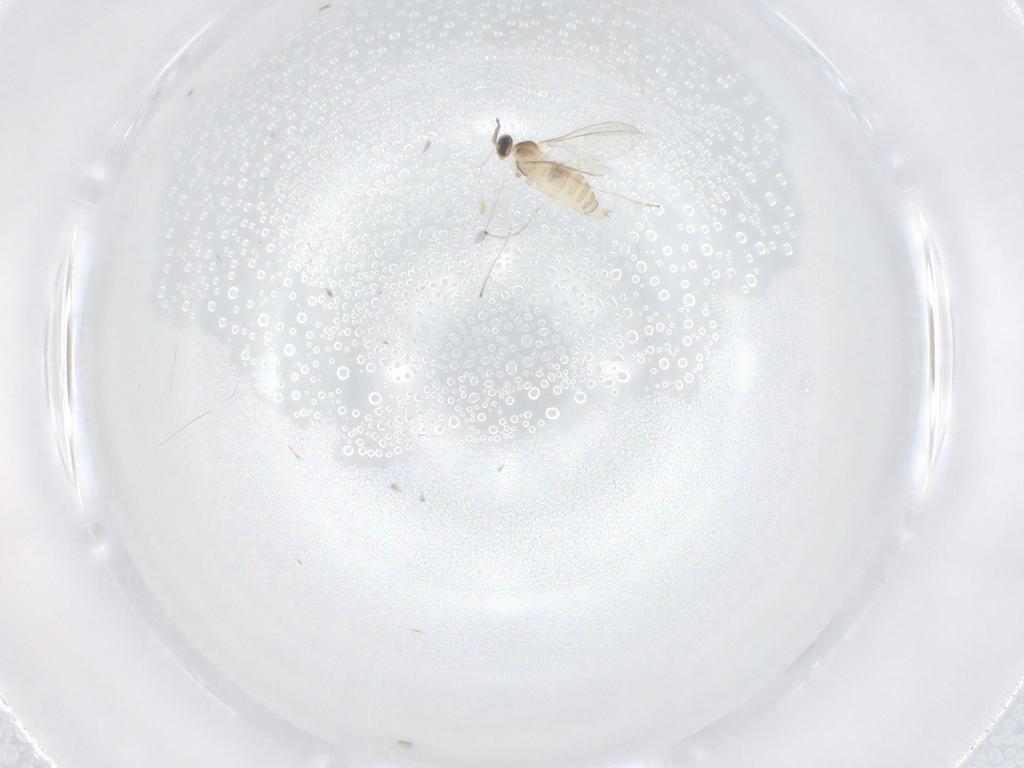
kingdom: Animalia
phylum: Arthropoda
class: Insecta
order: Diptera
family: Cecidomyiidae
